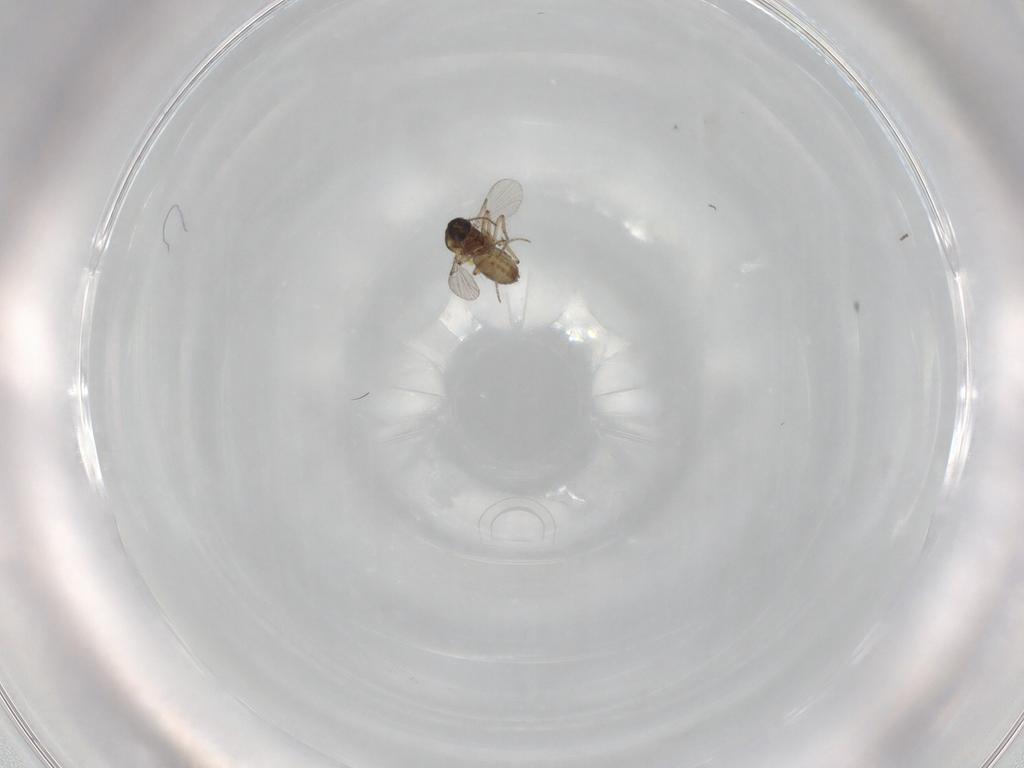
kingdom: Animalia
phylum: Arthropoda
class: Insecta
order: Diptera
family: Ceratopogonidae
